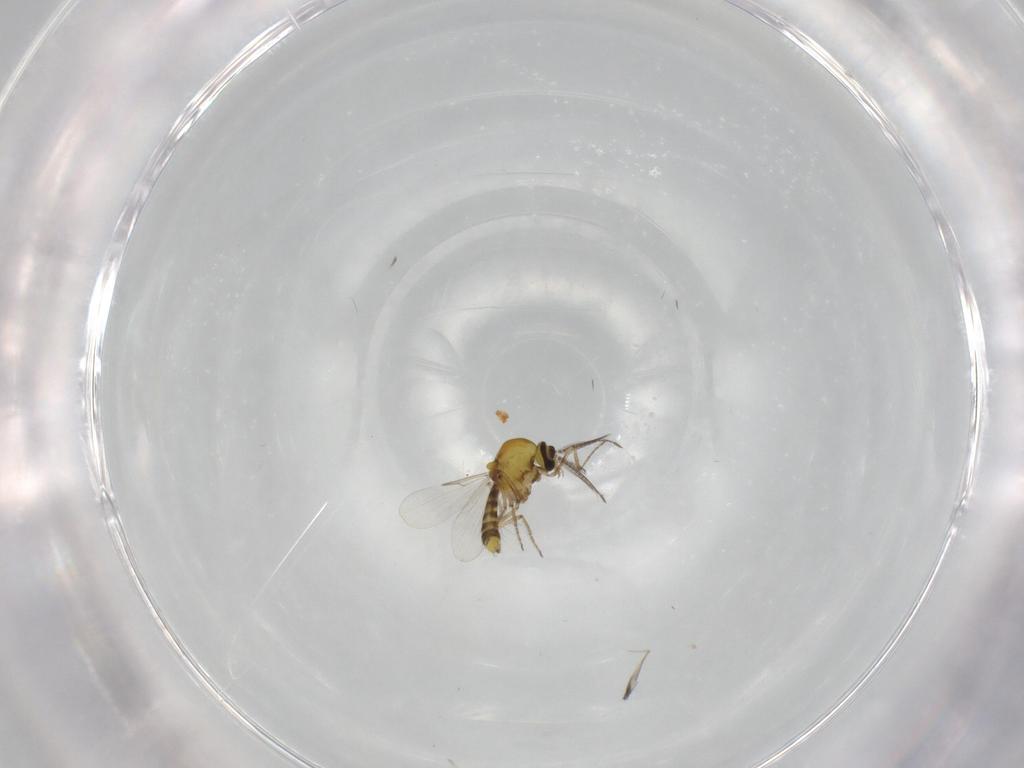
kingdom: Animalia
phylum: Arthropoda
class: Insecta
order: Diptera
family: Ceratopogonidae
